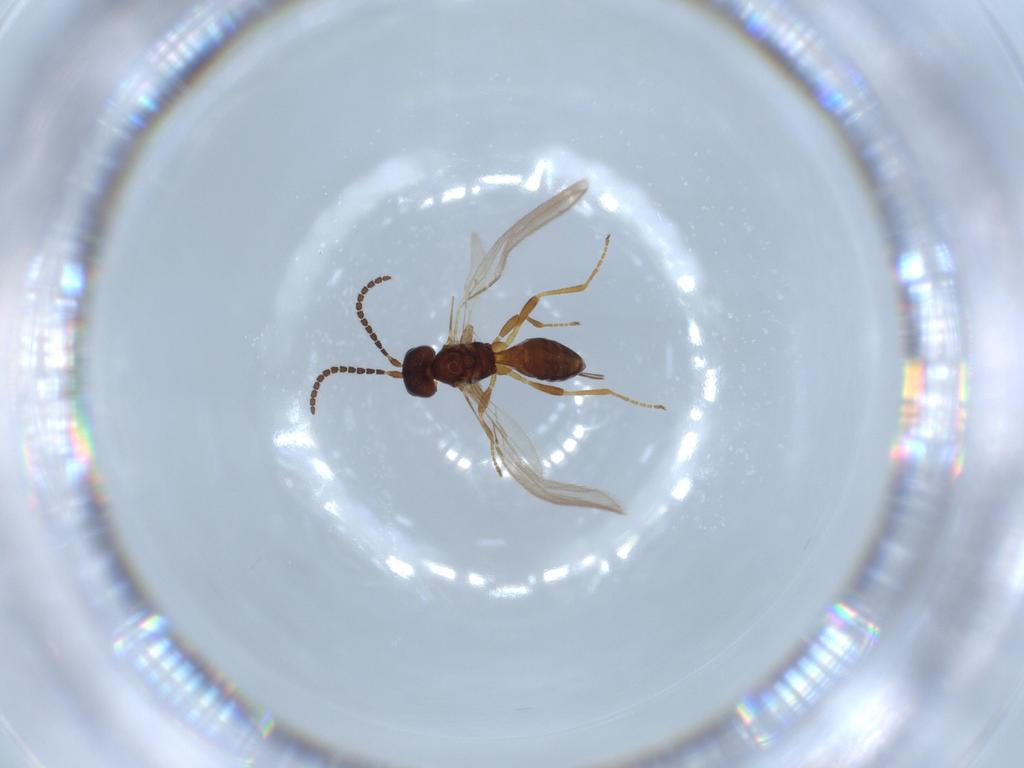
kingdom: Animalia
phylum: Arthropoda
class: Insecta
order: Hymenoptera
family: Braconidae
